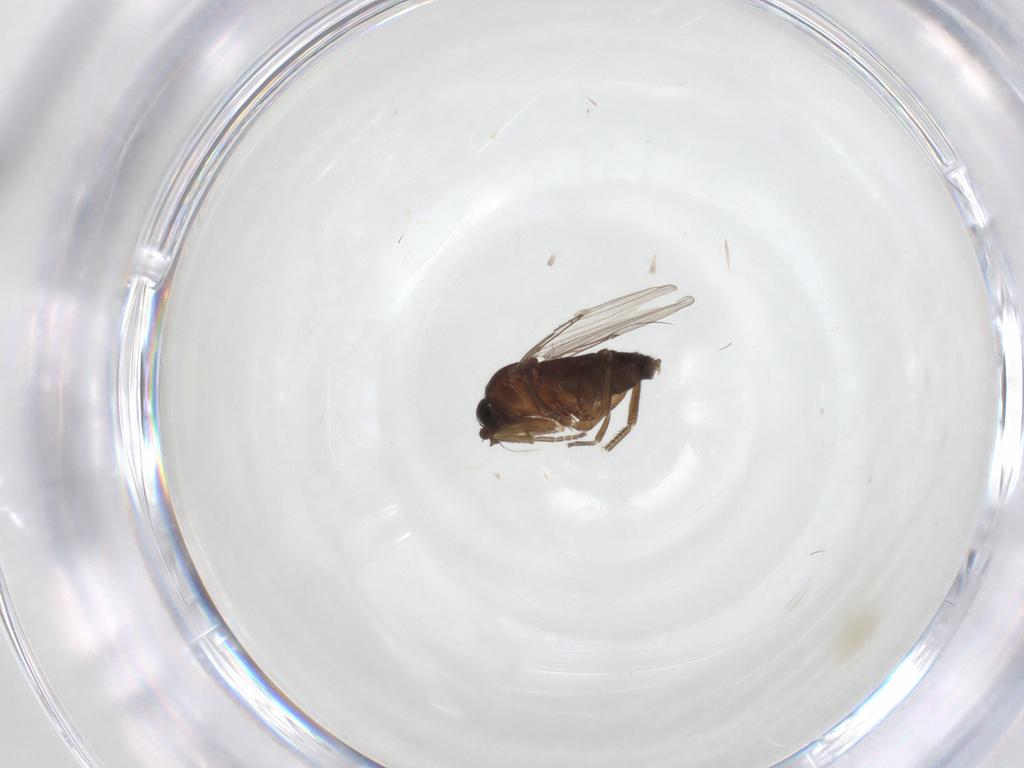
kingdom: Animalia
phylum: Arthropoda
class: Insecta
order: Diptera
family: Phoridae
